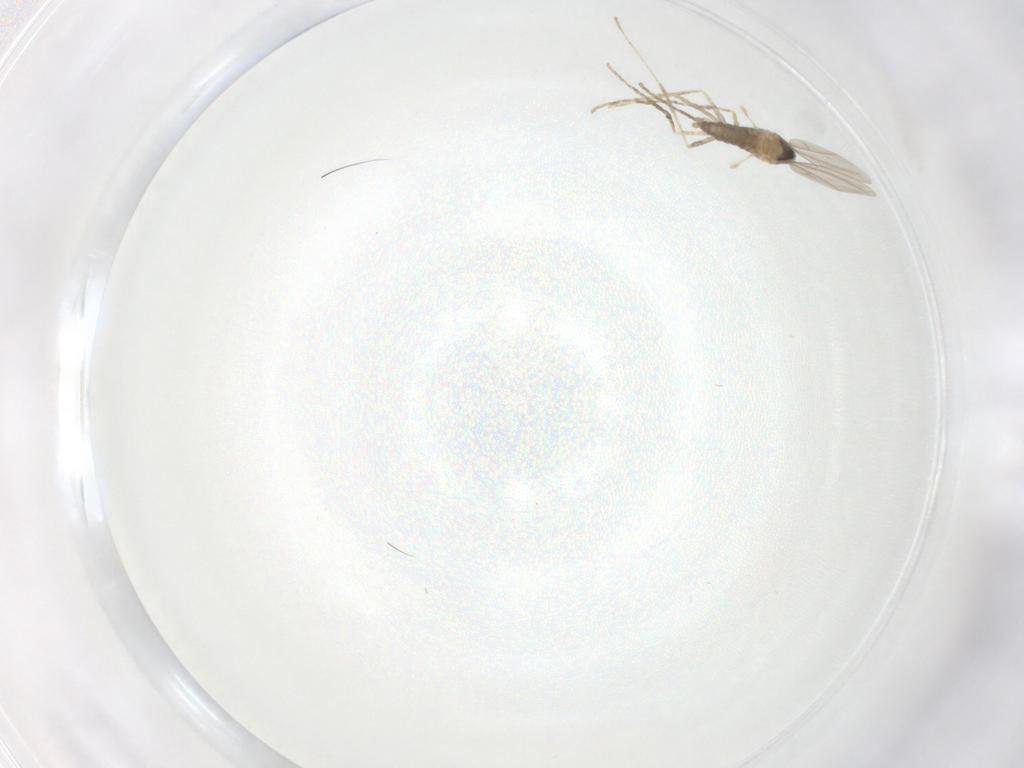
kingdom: Animalia
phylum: Arthropoda
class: Insecta
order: Diptera
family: Cecidomyiidae
